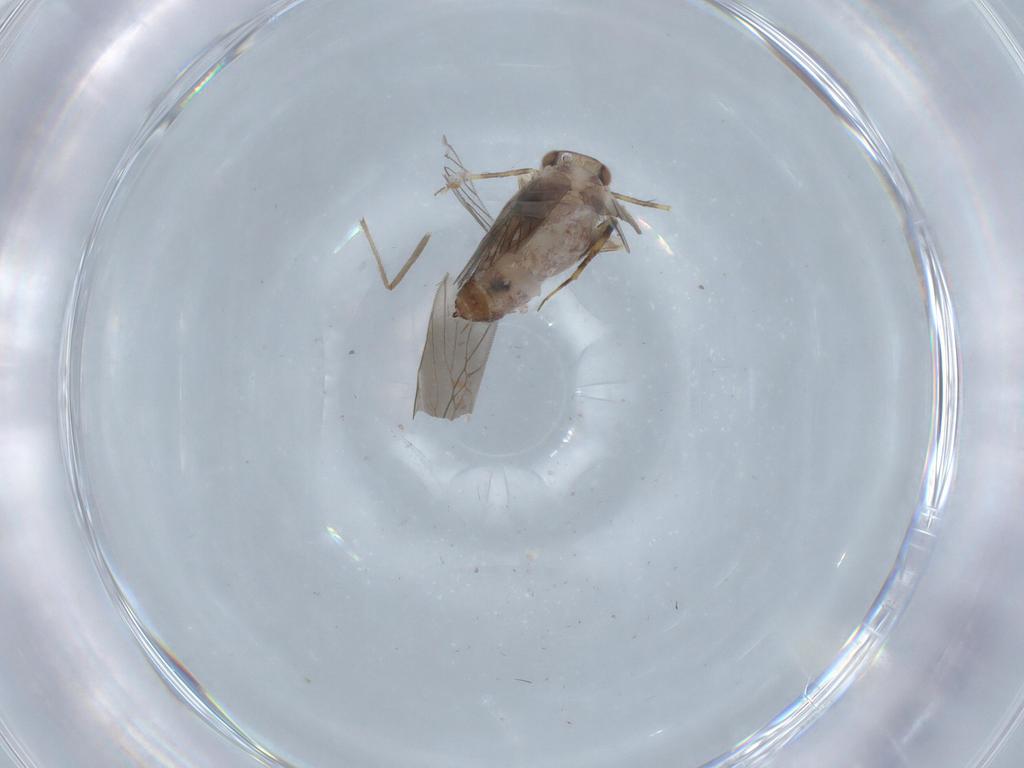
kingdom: Animalia
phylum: Arthropoda
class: Insecta
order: Psocodea
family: Lepidopsocidae
